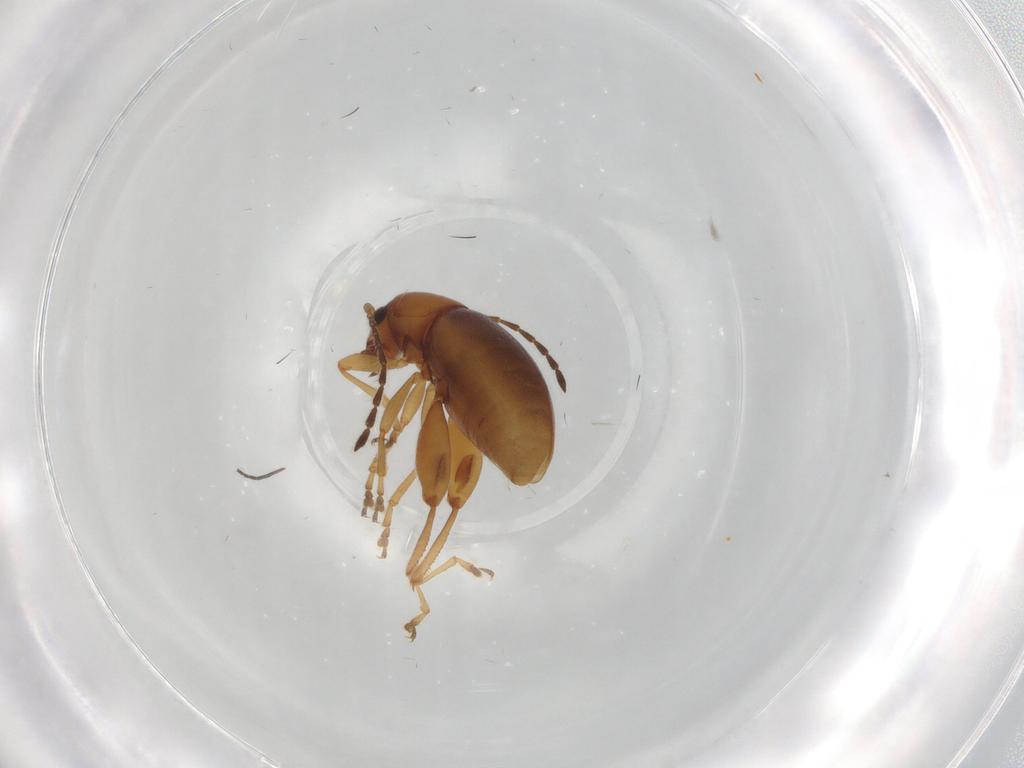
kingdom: Animalia
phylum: Arthropoda
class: Insecta
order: Coleoptera
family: Chrysomelidae
